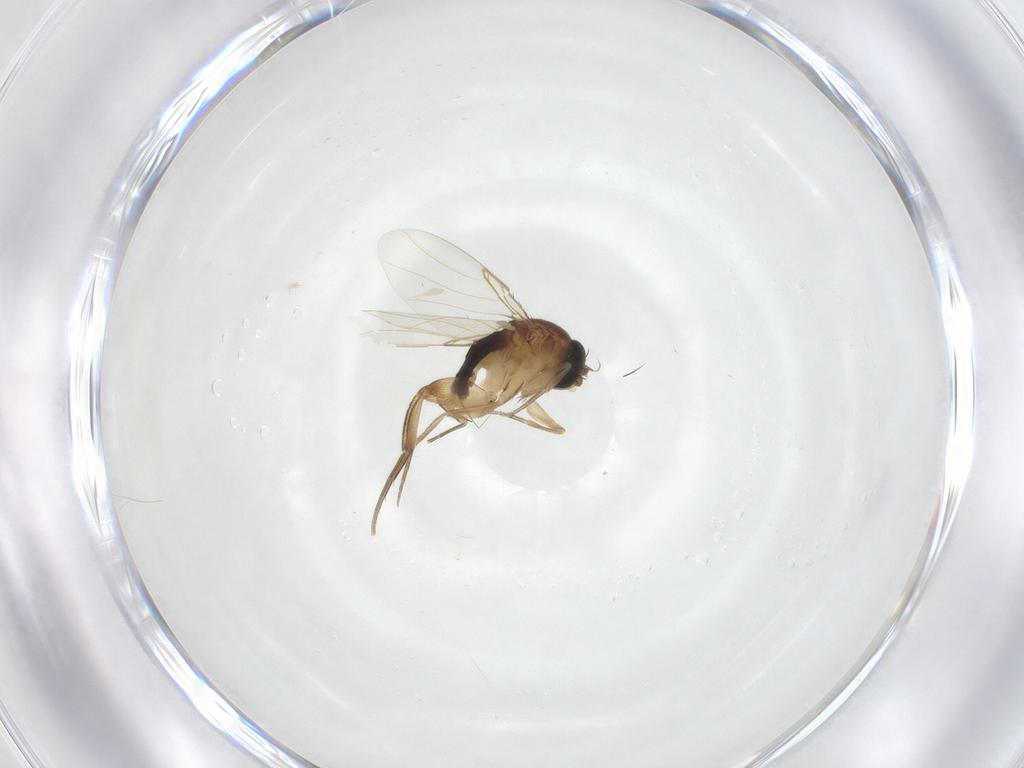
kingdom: Animalia
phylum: Arthropoda
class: Insecta
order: Diptera
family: Phoridae
